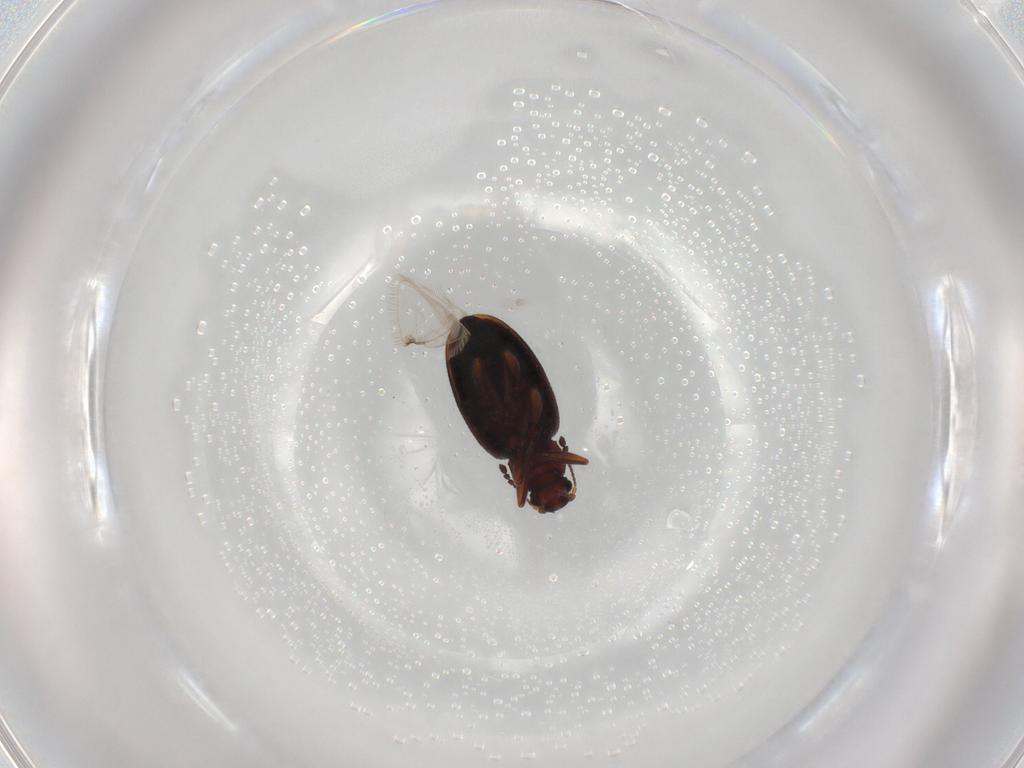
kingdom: Animalia
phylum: Arthropoda
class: Insecta
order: Coleoptera
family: Latridiidae
